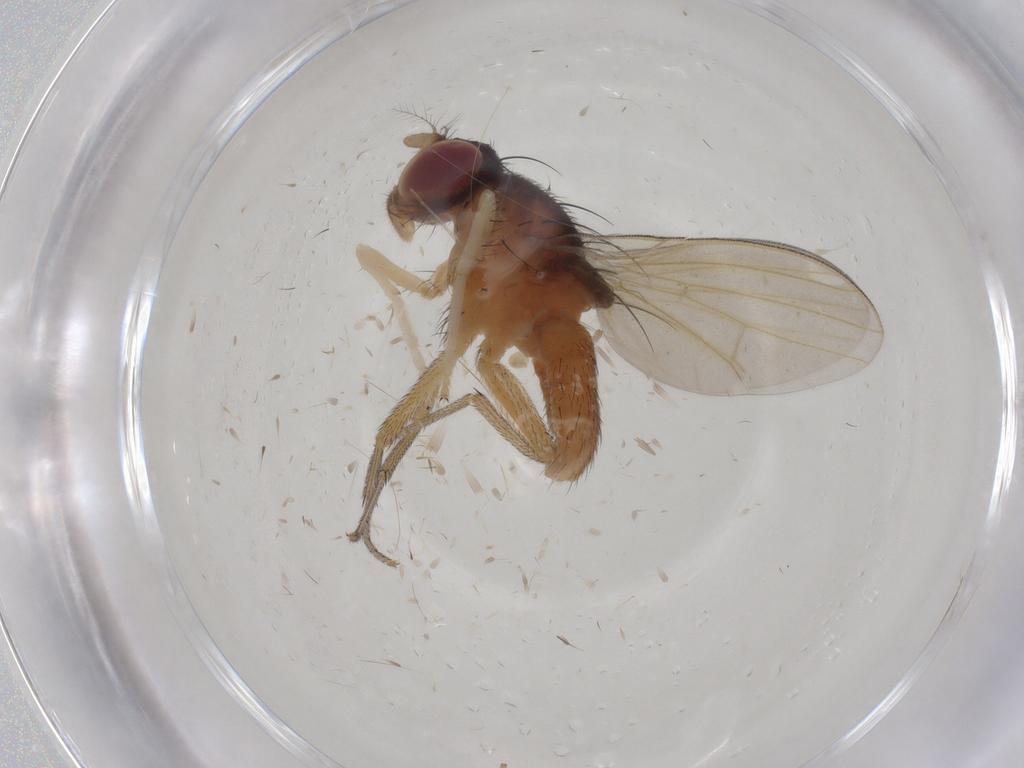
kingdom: Animalia
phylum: Arthropoda
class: Insecta
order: Diptera
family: Lauxaniidae
